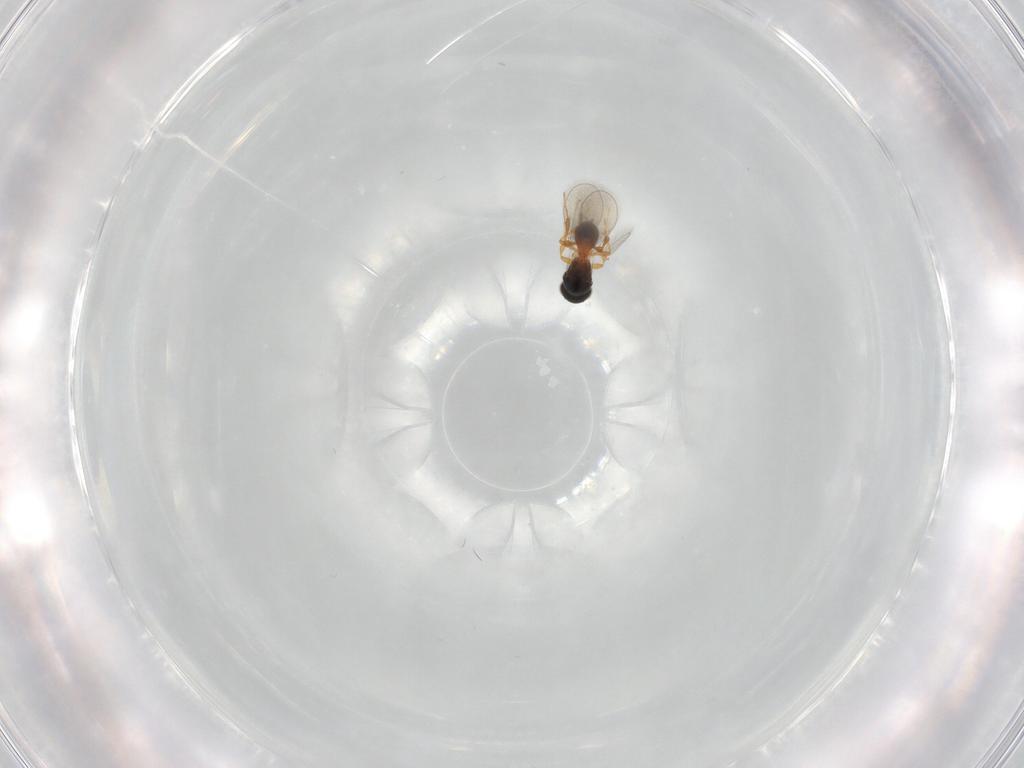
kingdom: Animalia
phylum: Arthropoda
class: Insecta
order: Hymenoptera
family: Platygastridae
